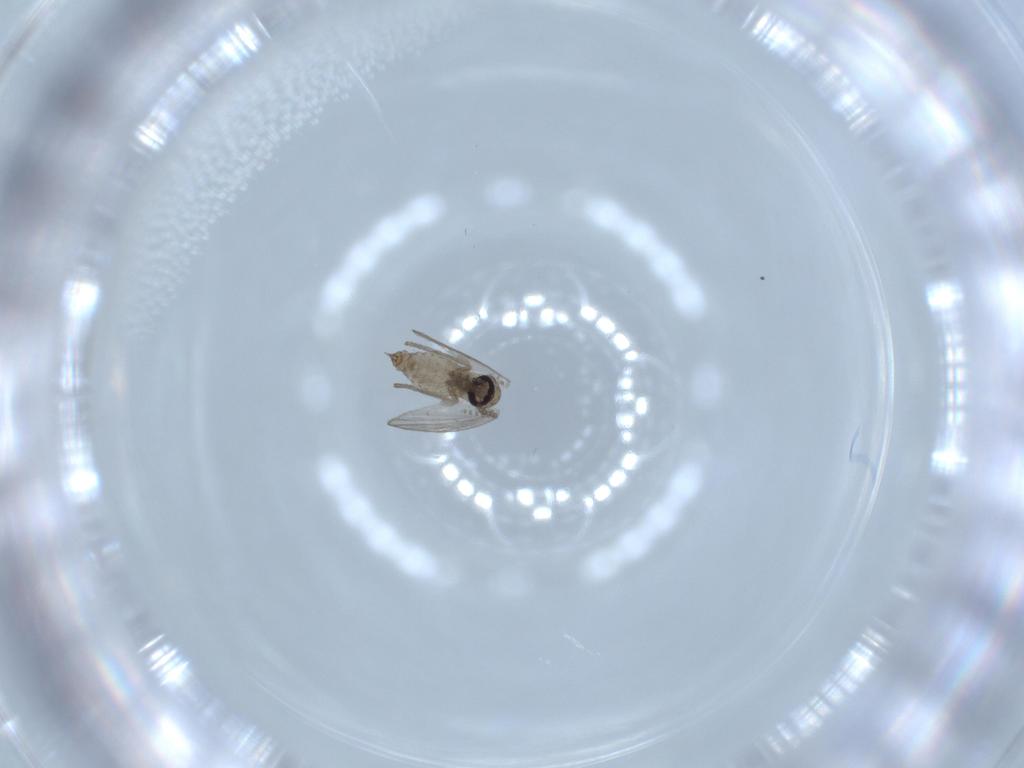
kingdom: Animalia
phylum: Arthropoda
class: Insecta
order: Diptera
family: Psychodidae
